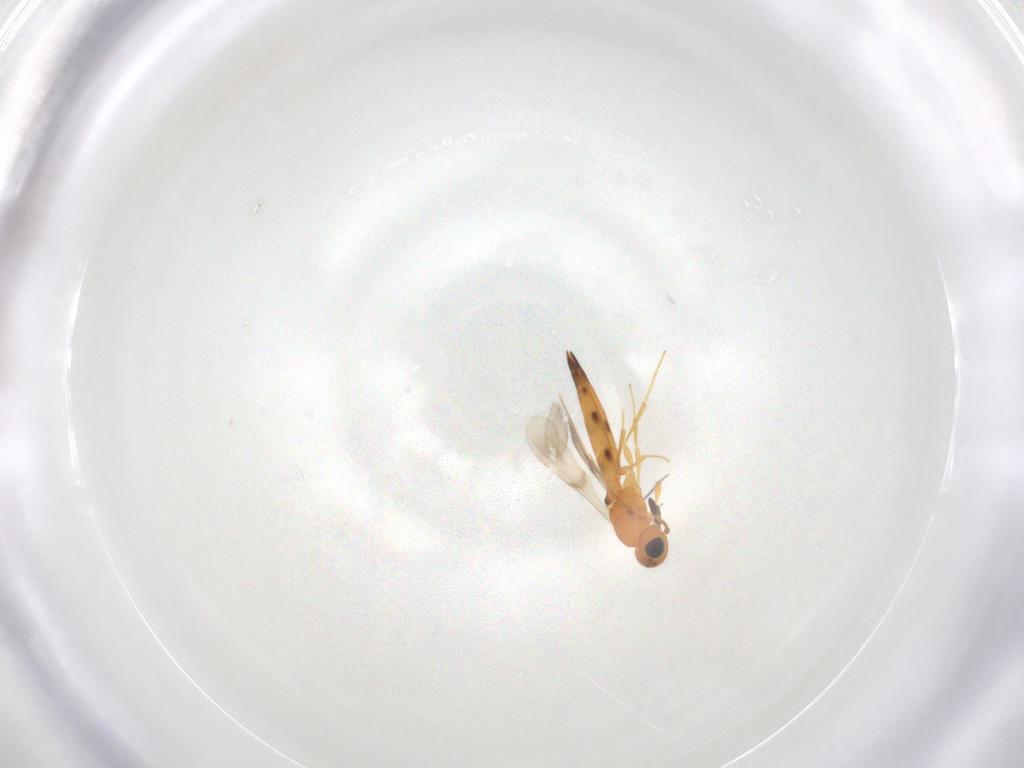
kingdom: Animalia
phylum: Arthropoda
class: Insecta
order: Hymenoptera
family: Scelionidae
